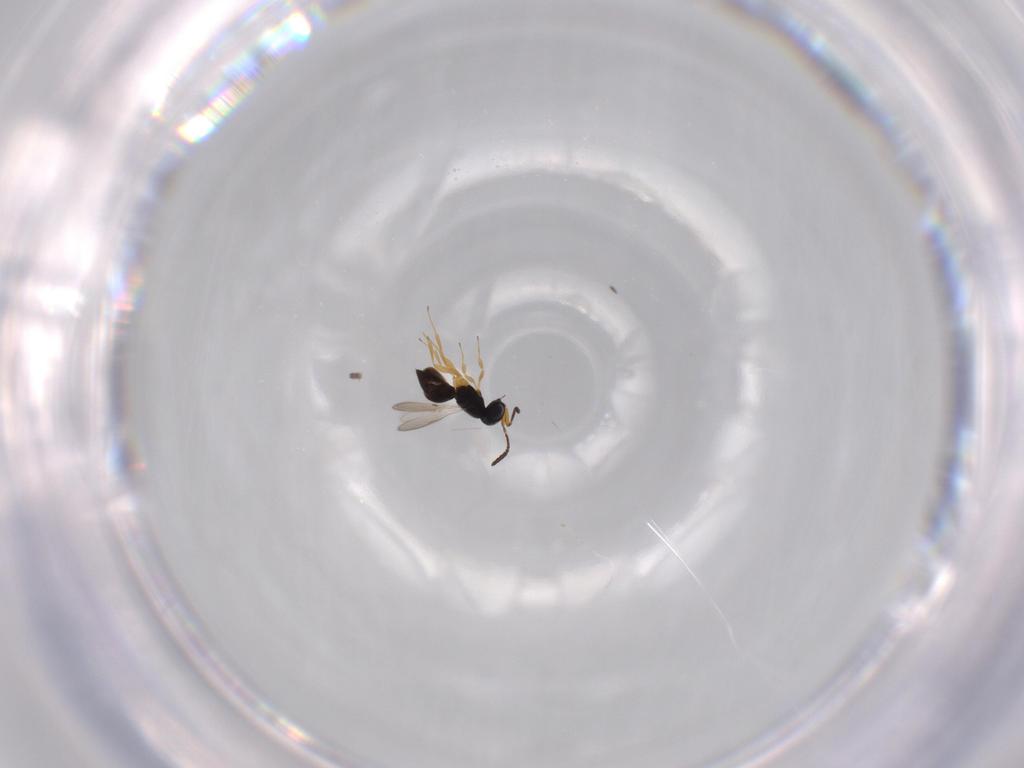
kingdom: Animalia
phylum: Arthropoda
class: Insecta
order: Hymenoptera
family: Scelionidae
